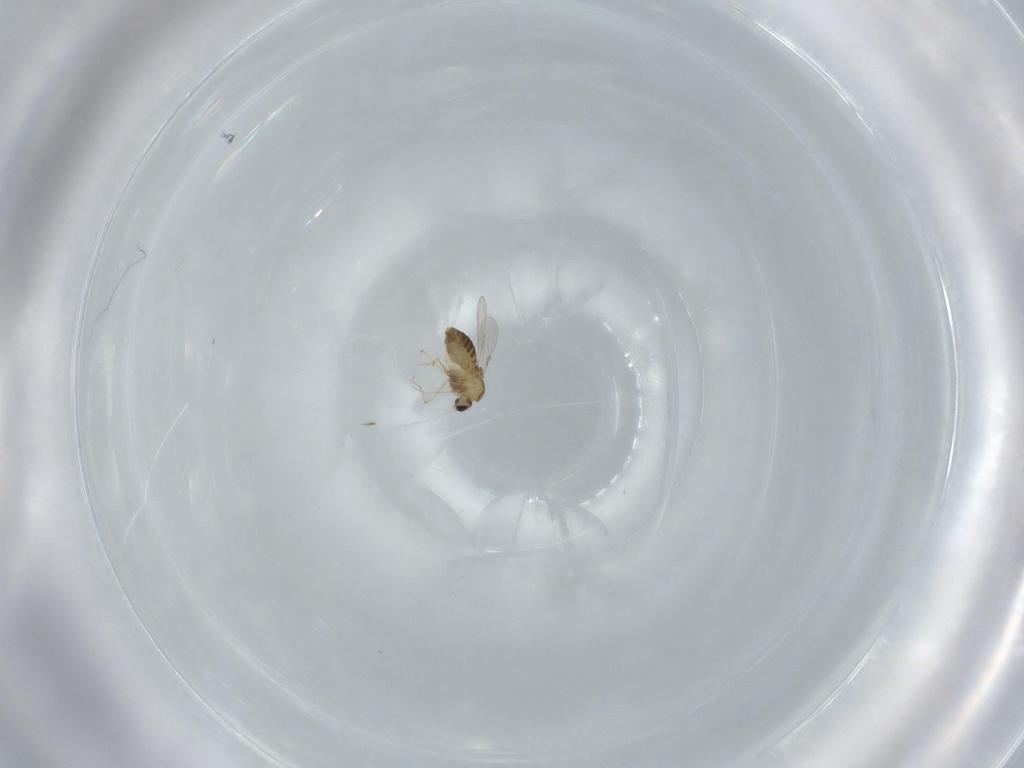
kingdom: Animalia
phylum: Arthropoda
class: Insecta
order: Diptera
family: Chironomidae
